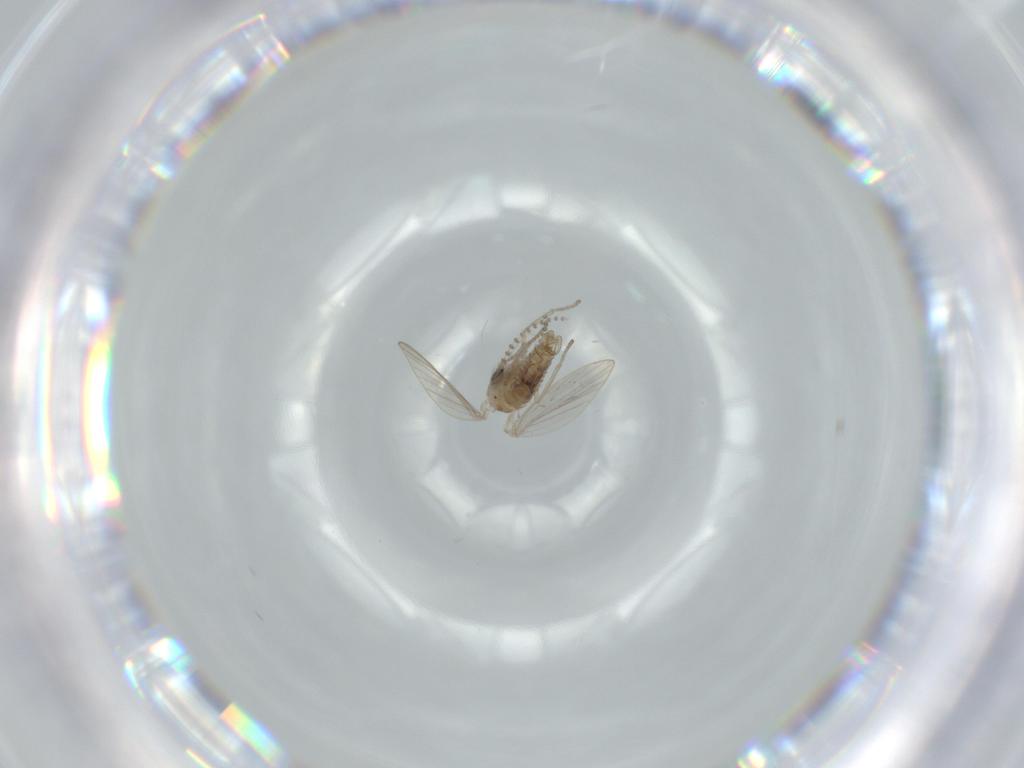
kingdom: Animalia
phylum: Arthropoda
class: Insecta
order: Diptera
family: Psychodidae
